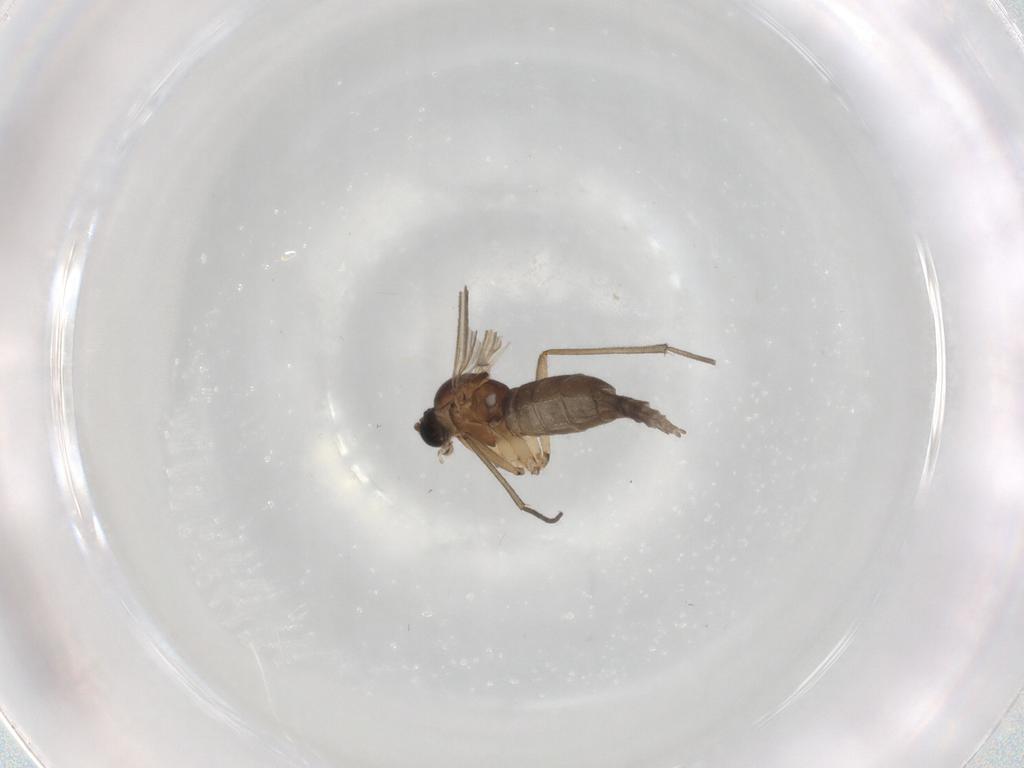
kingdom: Animalia
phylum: Arthropoda
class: Insecta
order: Diptera
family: Sciaridae
